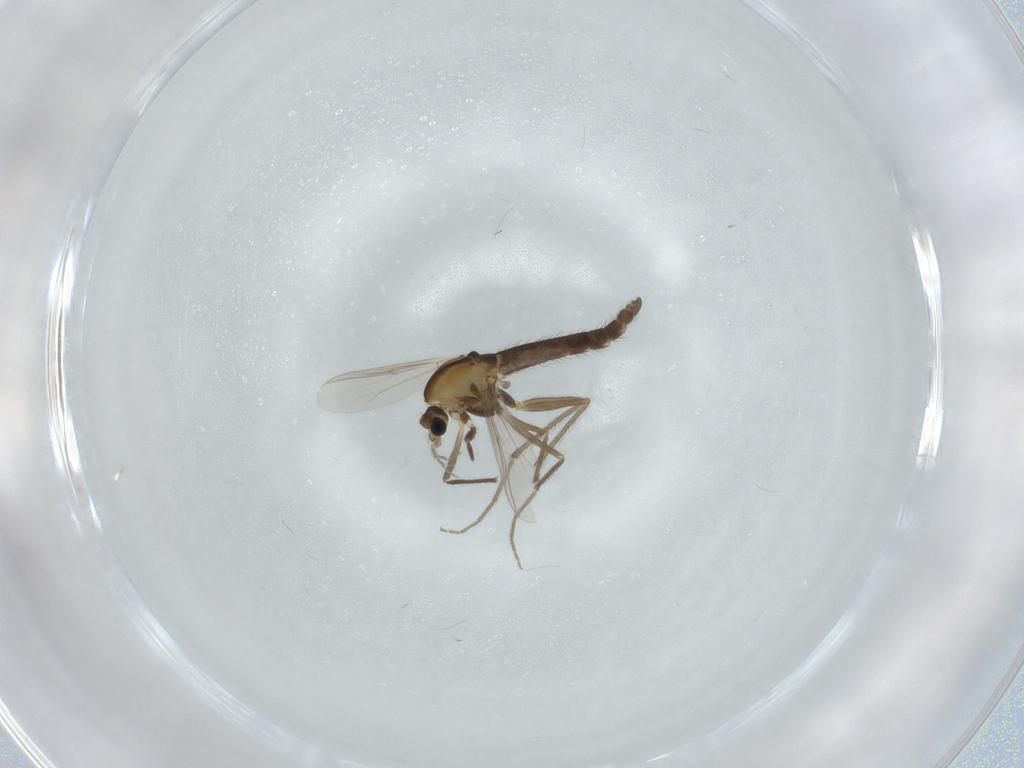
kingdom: Animalia
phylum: Arthropoda
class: Insecta
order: Diptera
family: Chironomidae
